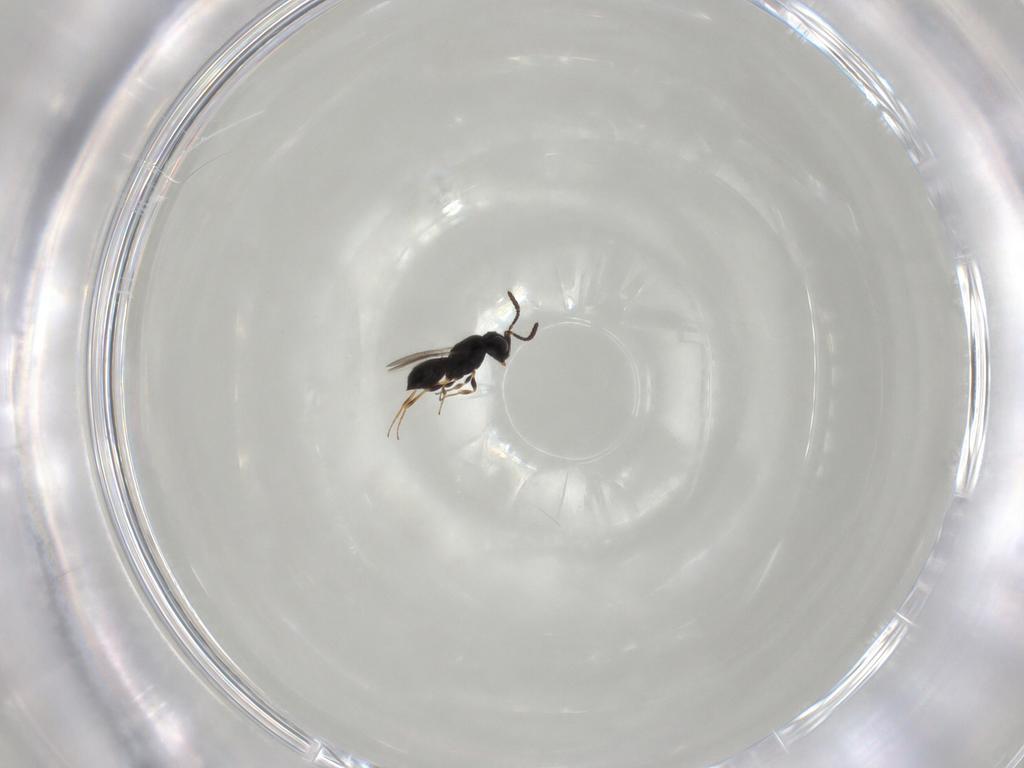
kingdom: Animalia
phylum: Arthropoda
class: Insecta
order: Hymenoptera
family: Scelionidae
